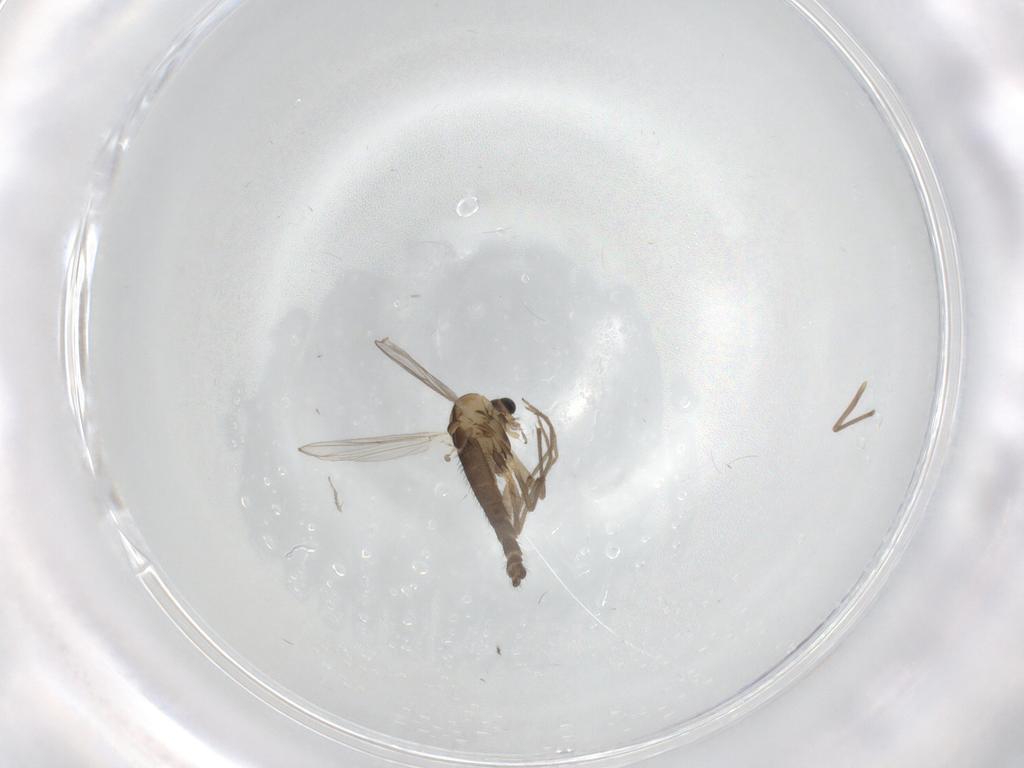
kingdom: Animalia
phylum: Arthropoda
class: Insecta
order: Diptera
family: Chironomidae
